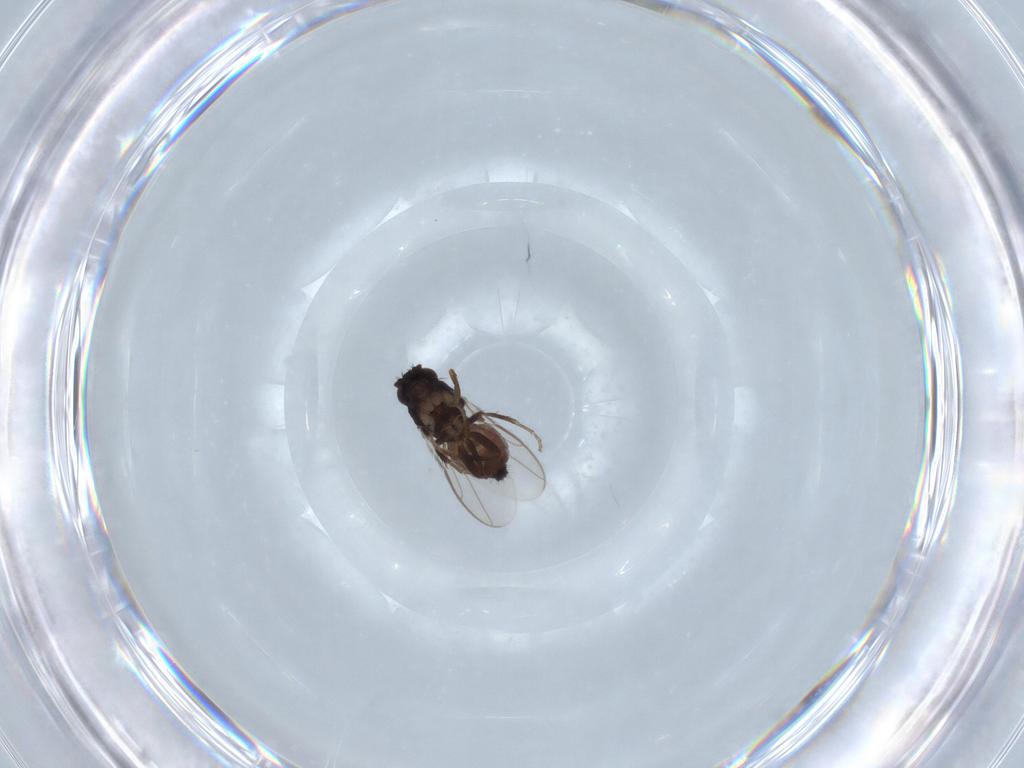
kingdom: Animalia
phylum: Arthropoda
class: Insecta
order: Diptera
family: Sphaeroceridae
